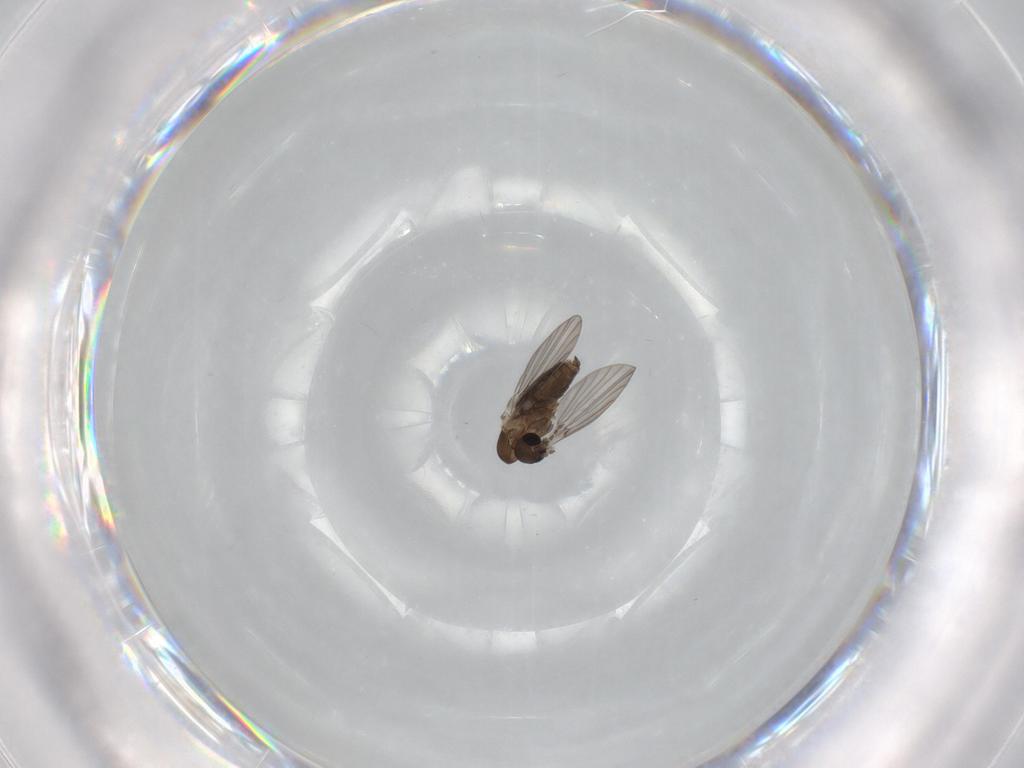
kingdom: Animalia
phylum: Arthropoda
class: Insecta
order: Diptera
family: Psychodidae
